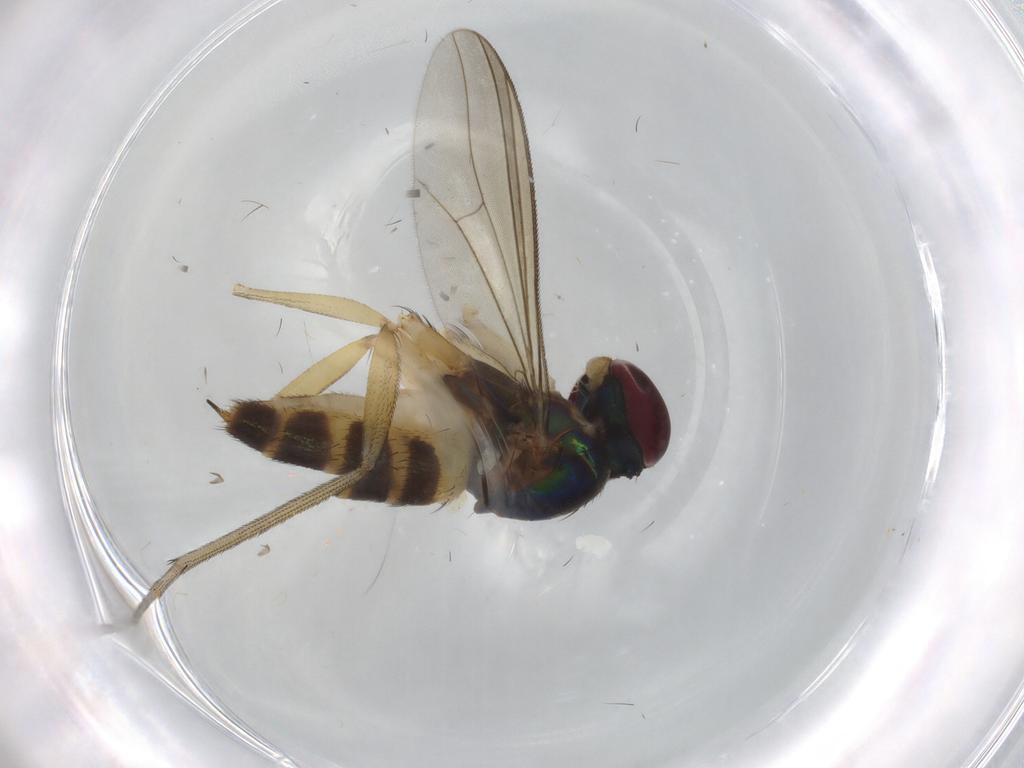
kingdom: Animalia
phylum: Arthropoda
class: Insecta
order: Diptera
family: Dolichopodidae
